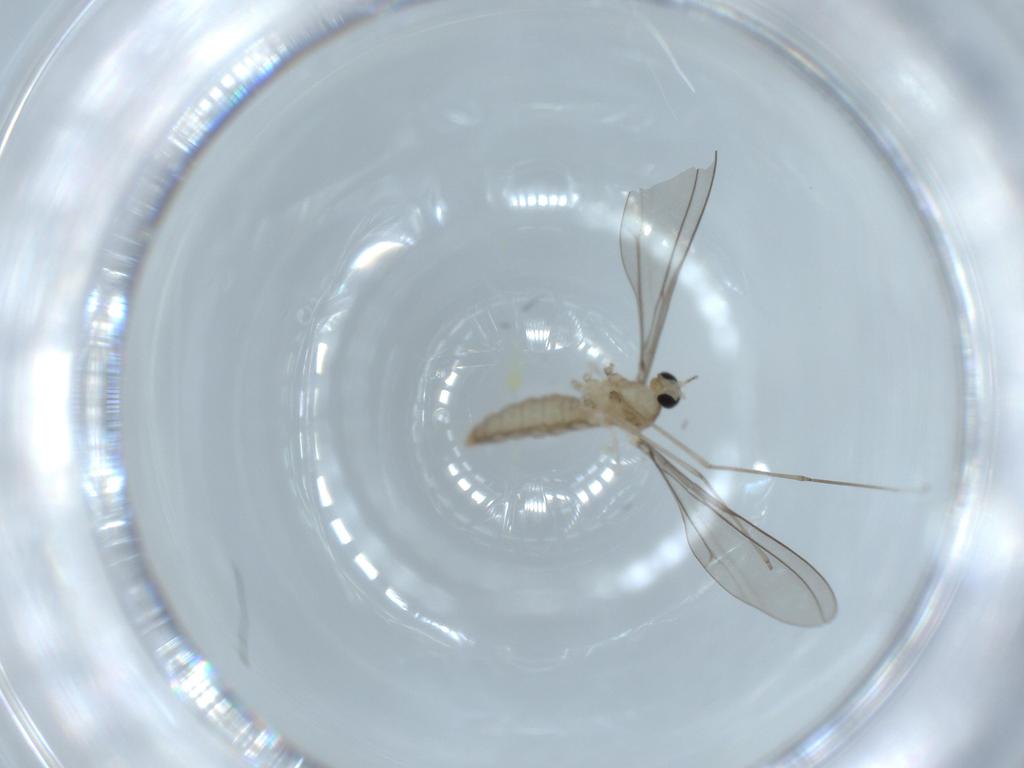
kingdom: Animalia
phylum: Arthropoda
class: Insecta
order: Diptera
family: Cecidomyiidae
